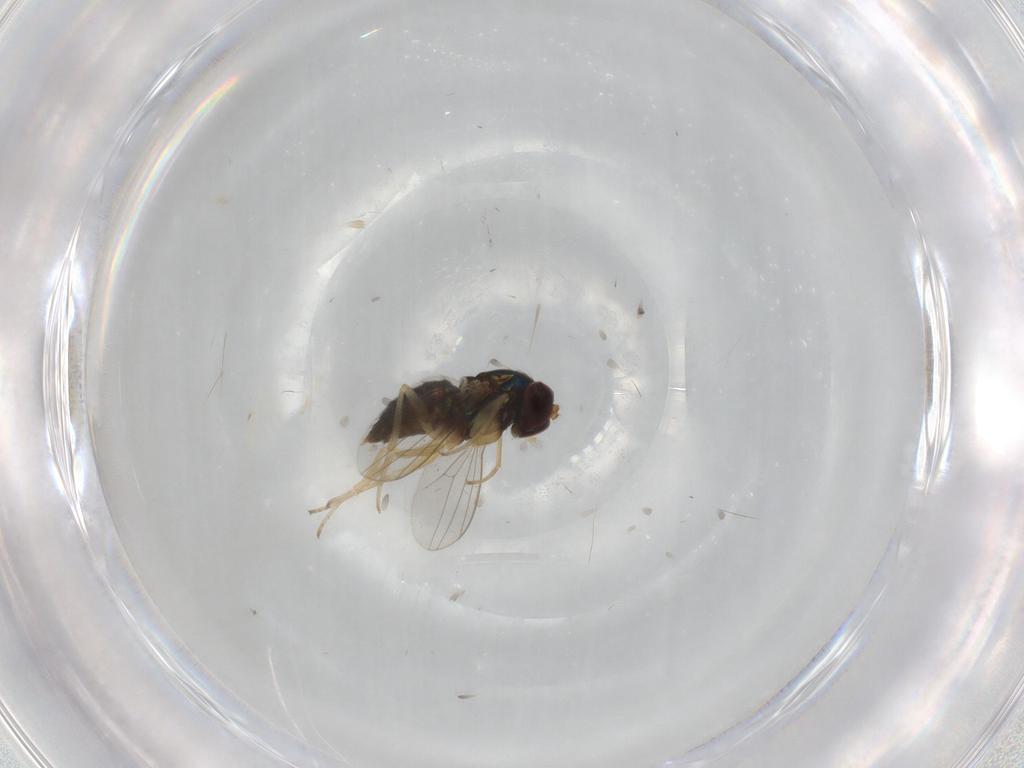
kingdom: Animalia
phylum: Arthropoda
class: Insecta
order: Diptera
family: Dolichopodidae
